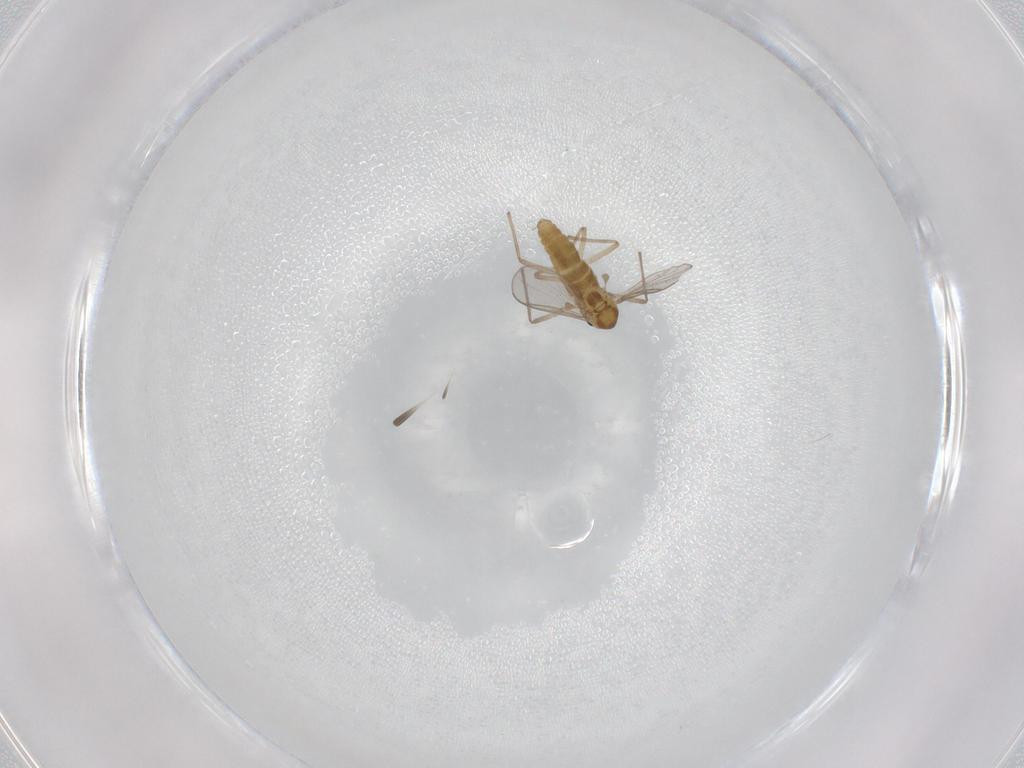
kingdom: Animalia
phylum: Arthropoda
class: Insecta
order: Diptera
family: Chironomidae
